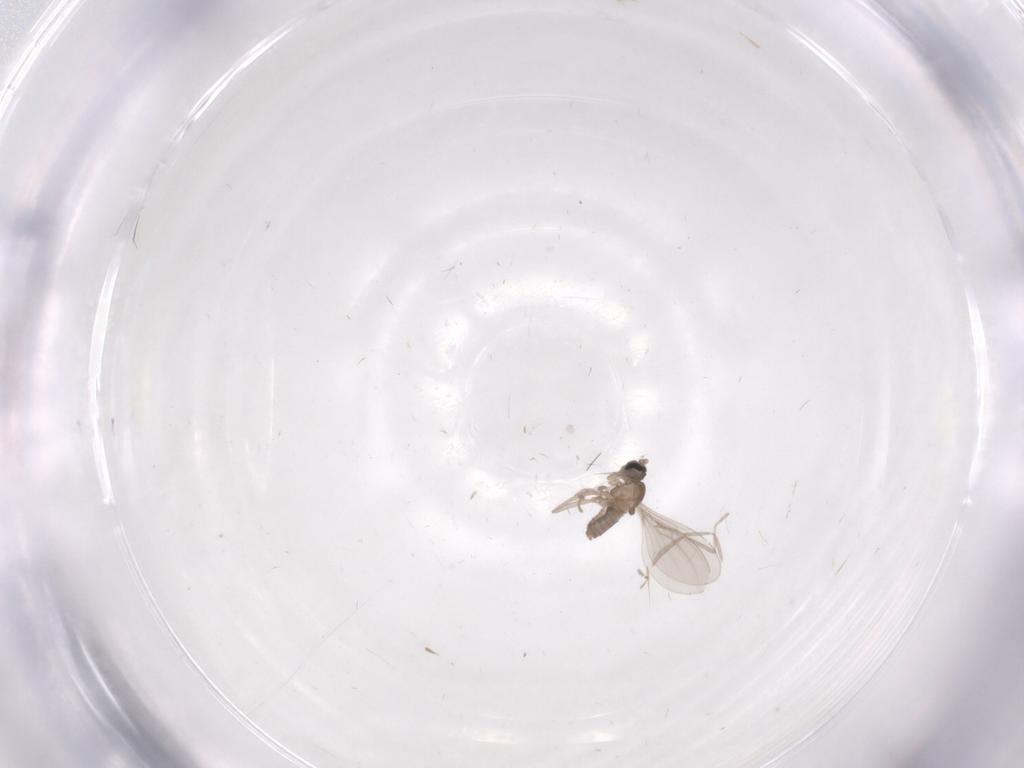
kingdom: Animalia
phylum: Arthropoda
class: Insecta
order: Diptera
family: Cecidomyiidae
